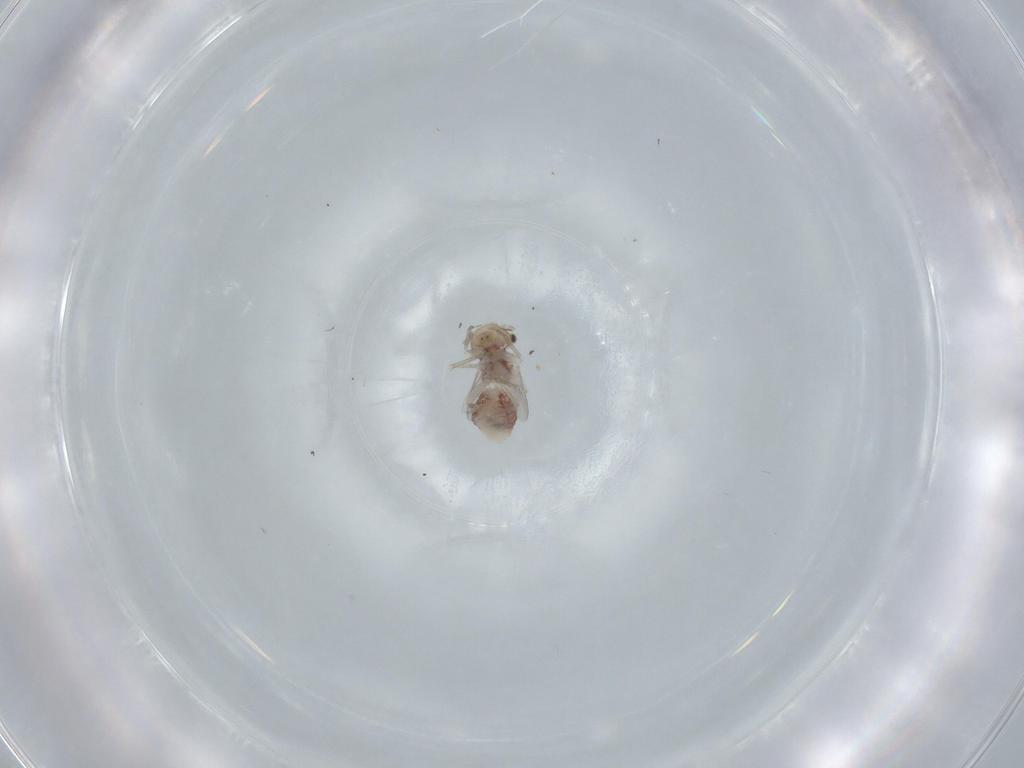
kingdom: Animalia
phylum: Arthropoda
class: Insecta
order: Psocodea
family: Ectopsocidae
